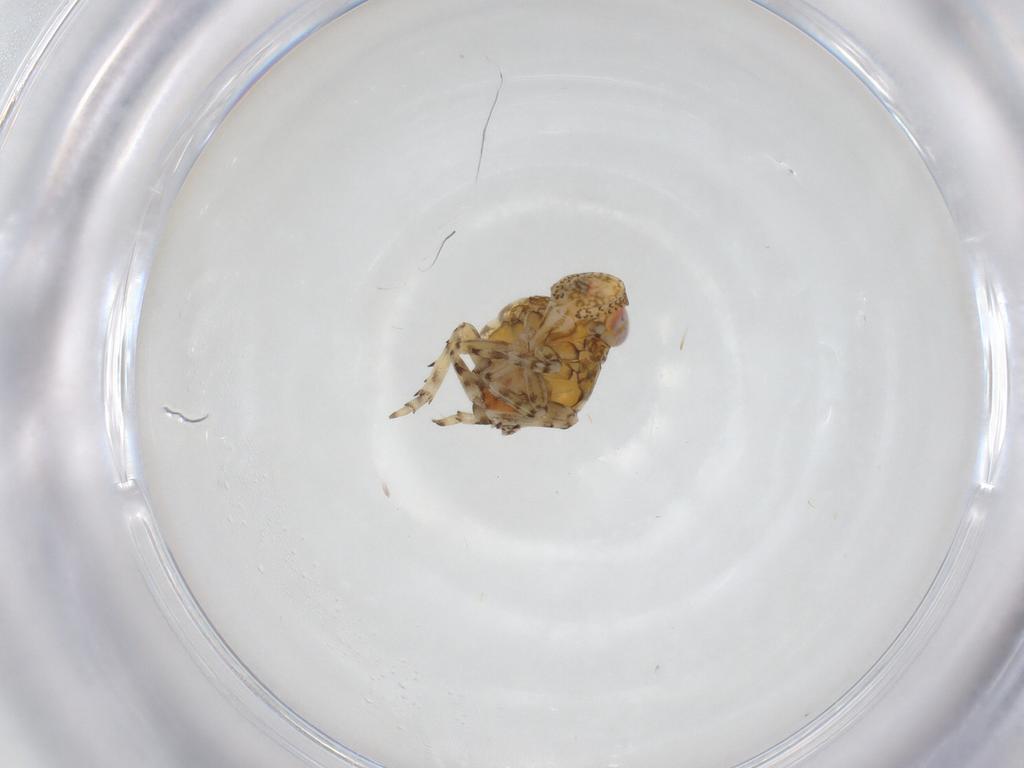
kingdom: Animalia
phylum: Arthropoda
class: Insecta
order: Hemiptera
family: Issidae
